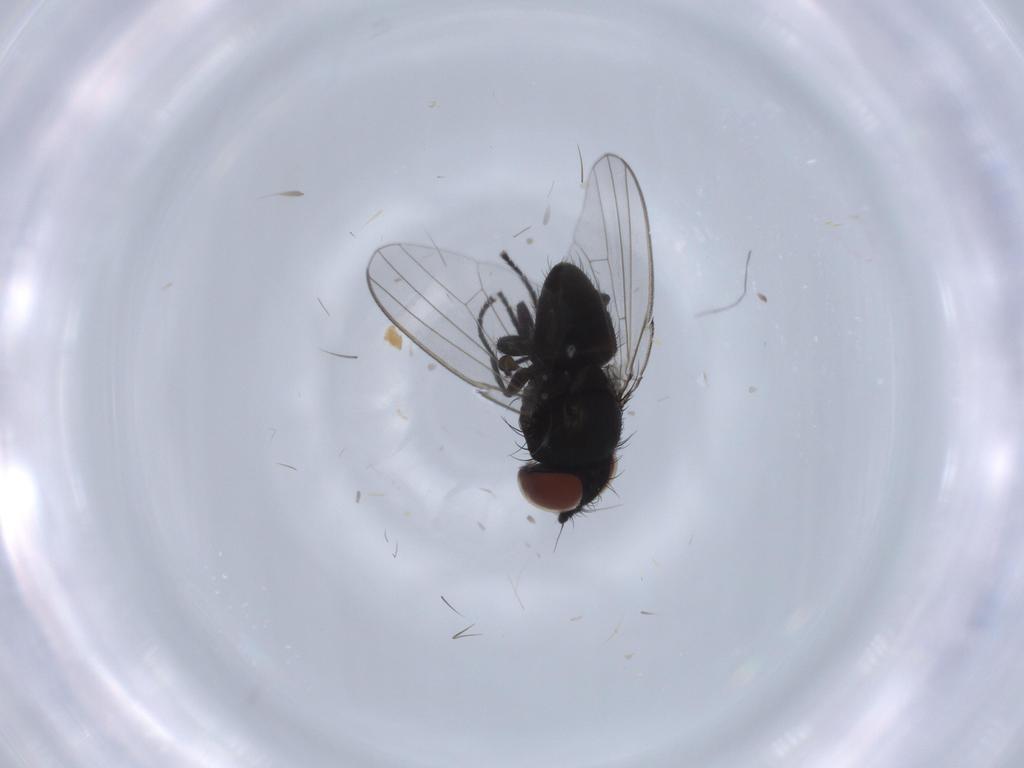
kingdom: Animalia
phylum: Arthropoda
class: Insecta
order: Diptera
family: Milichiidae
